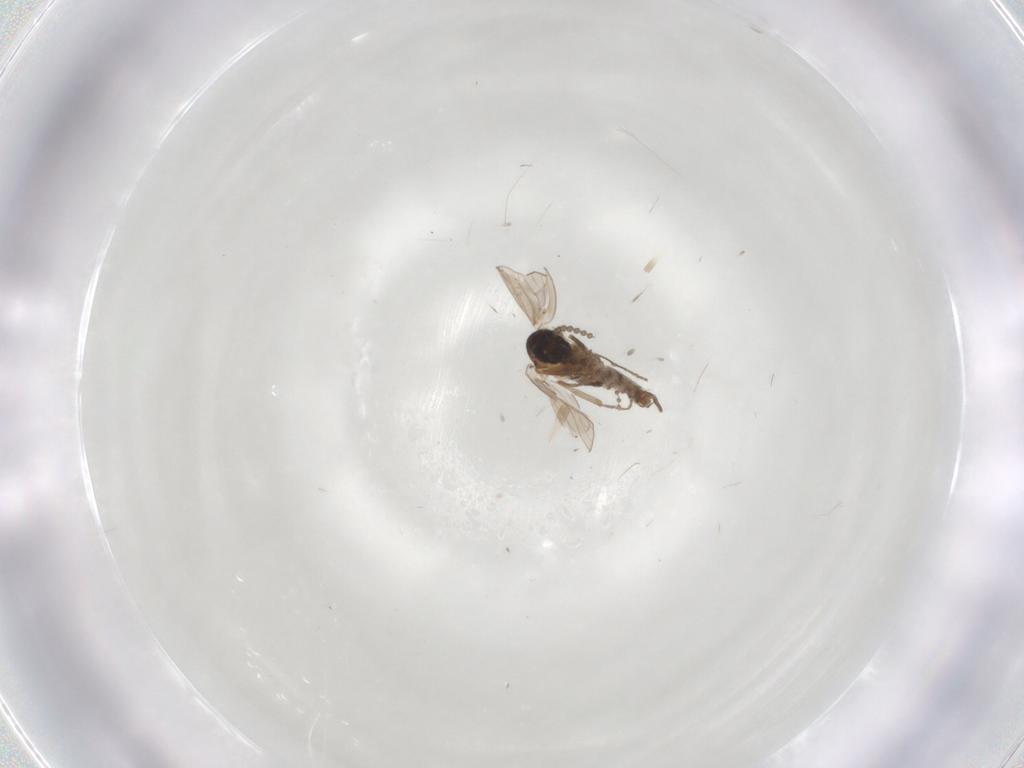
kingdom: Animalia
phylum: Arthropoda
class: Insecta
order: Diptera
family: Psychodidae
